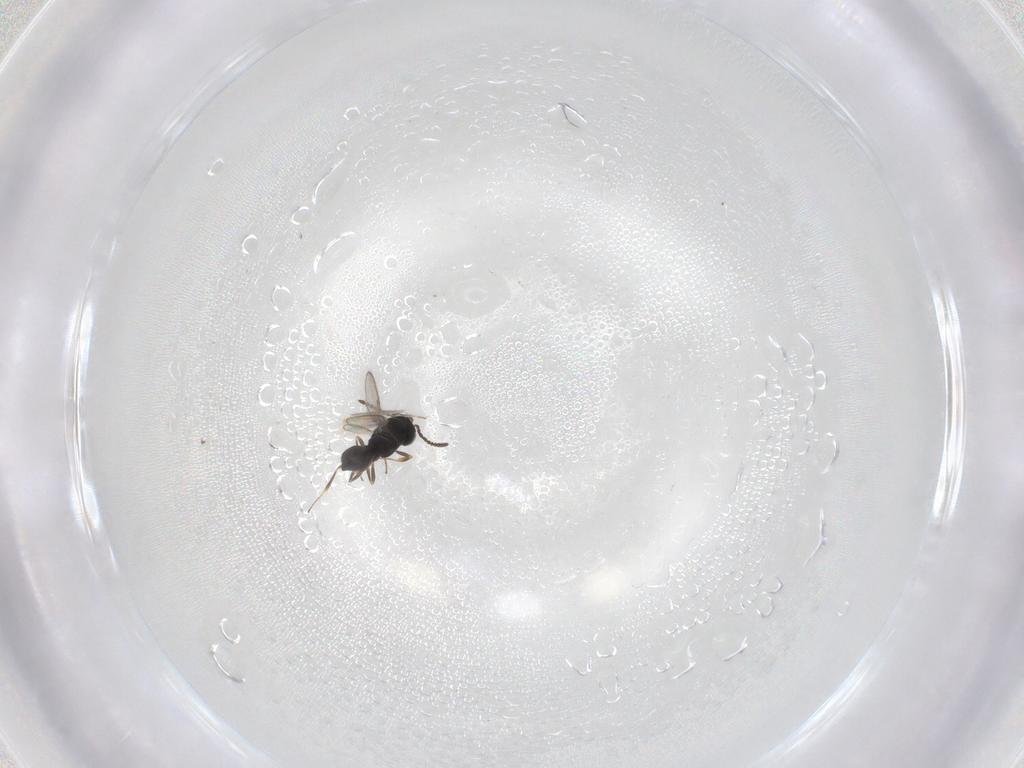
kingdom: Animalia
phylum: Arthropoda
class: Insecta
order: Hymenoptera
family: Scelionidae
